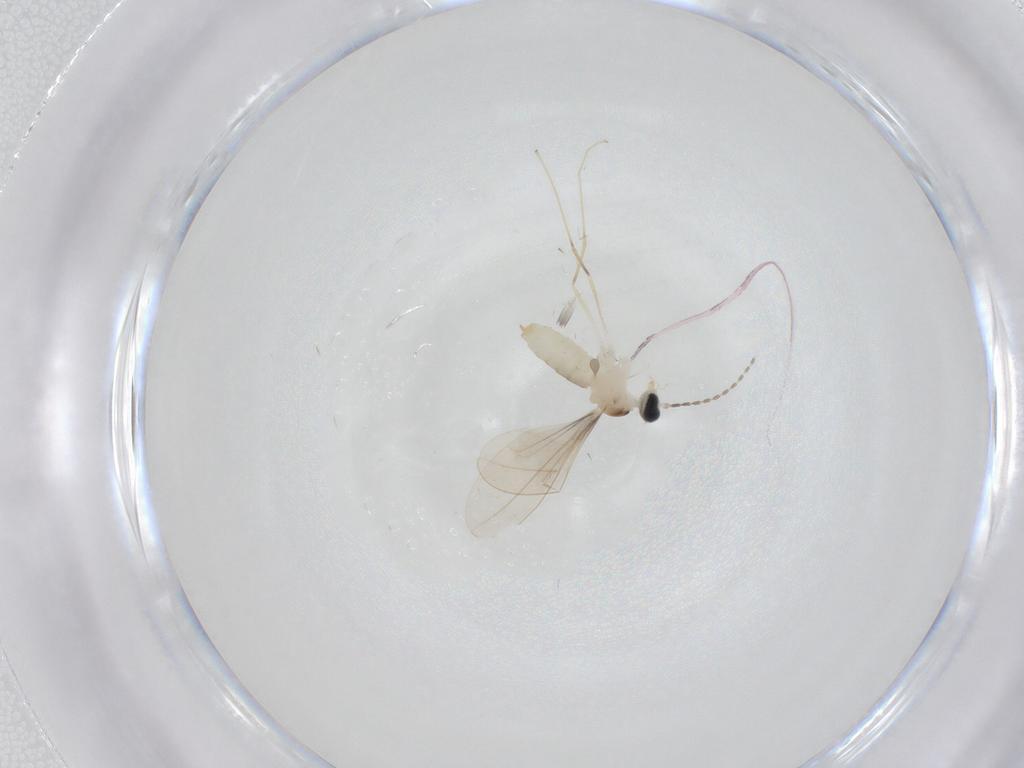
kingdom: Animalia
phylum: Arthropoda
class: Insecta
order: Diptera
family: Cecidomyiidae
